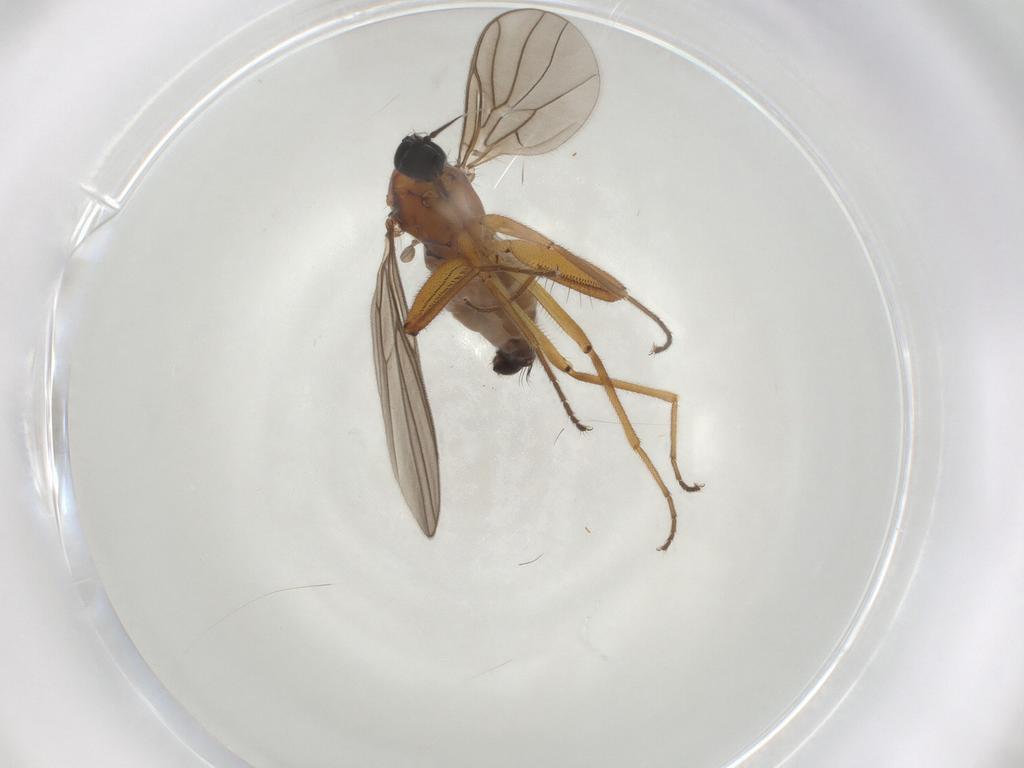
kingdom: Animalia
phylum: Arthropoda
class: Insecta
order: Diptera
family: Hybotidae
